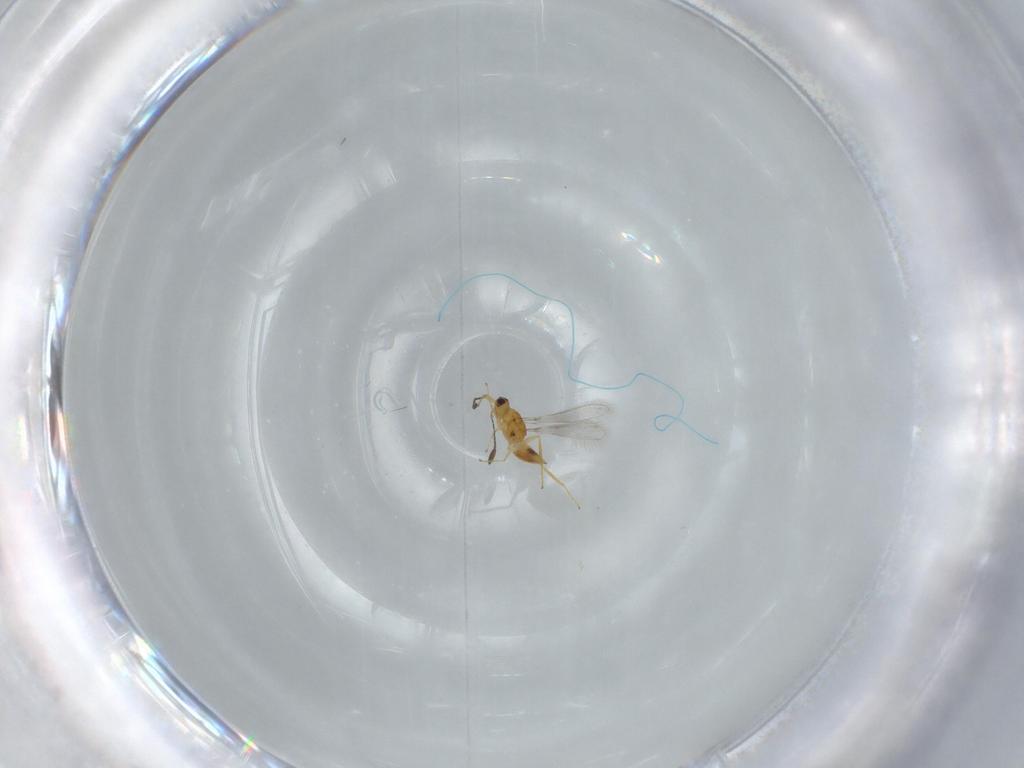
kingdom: Animalia
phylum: Arthropoda
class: Insecta
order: Hymenoptera
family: Mymaridae
